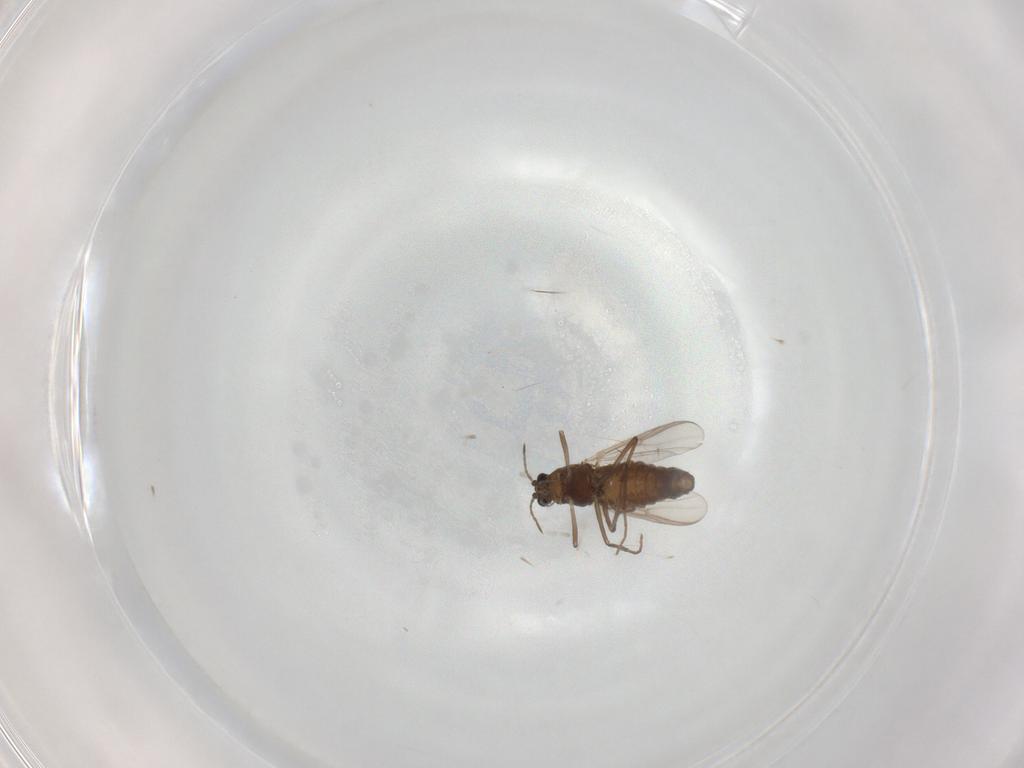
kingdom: Animalia
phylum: Arthropoda
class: Insecta
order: Diptera
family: Chironomidae
